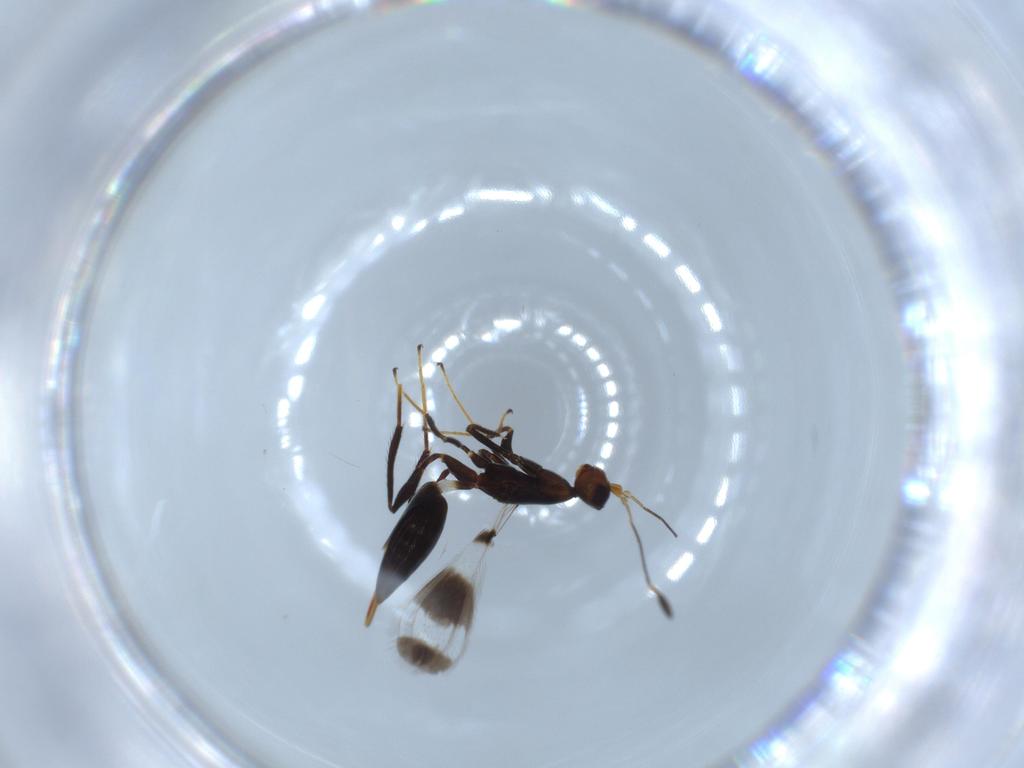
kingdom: Animalia
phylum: Arthropoda
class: Insecta
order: Hymenoptera
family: Mymaridae
